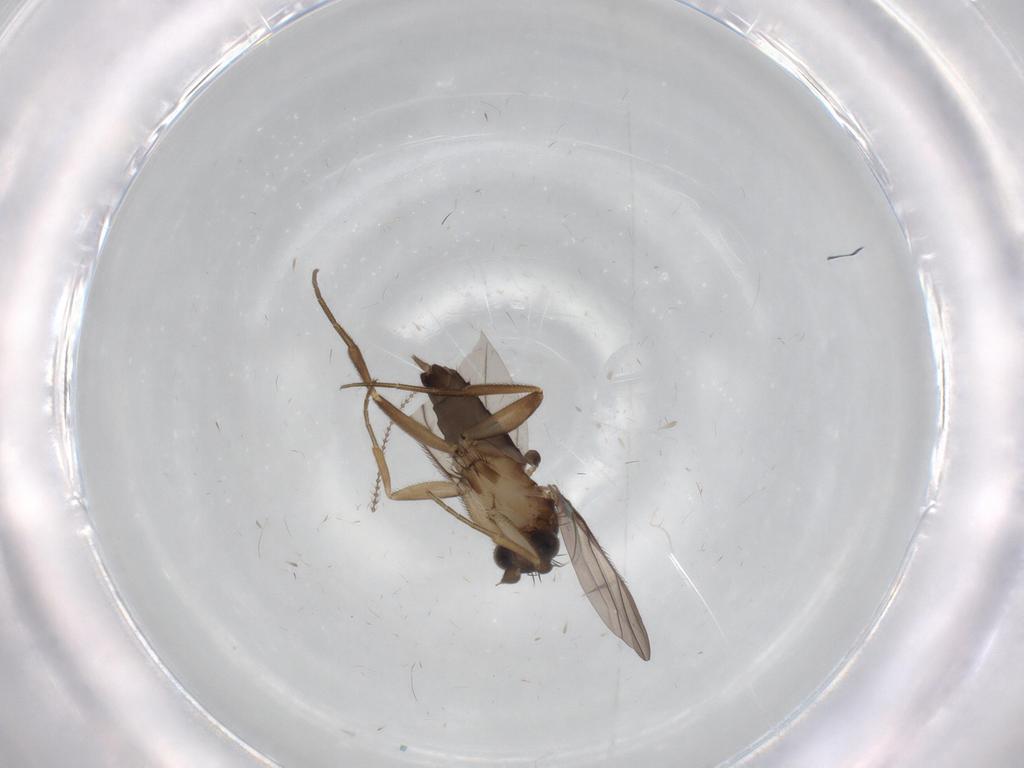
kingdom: Animalia
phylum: Arthropoda
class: Insecta
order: Diptera
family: Phoridae
